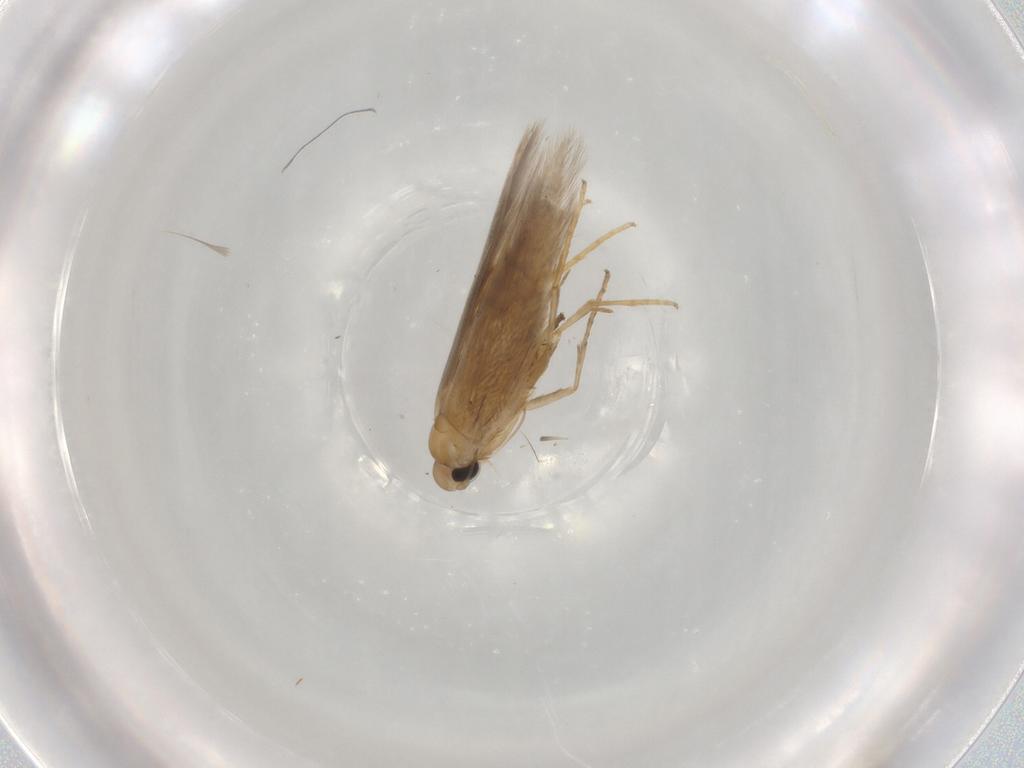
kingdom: Animalia
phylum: Arthropoda
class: Insecta
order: Lepidoptera
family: Tischeriidae
